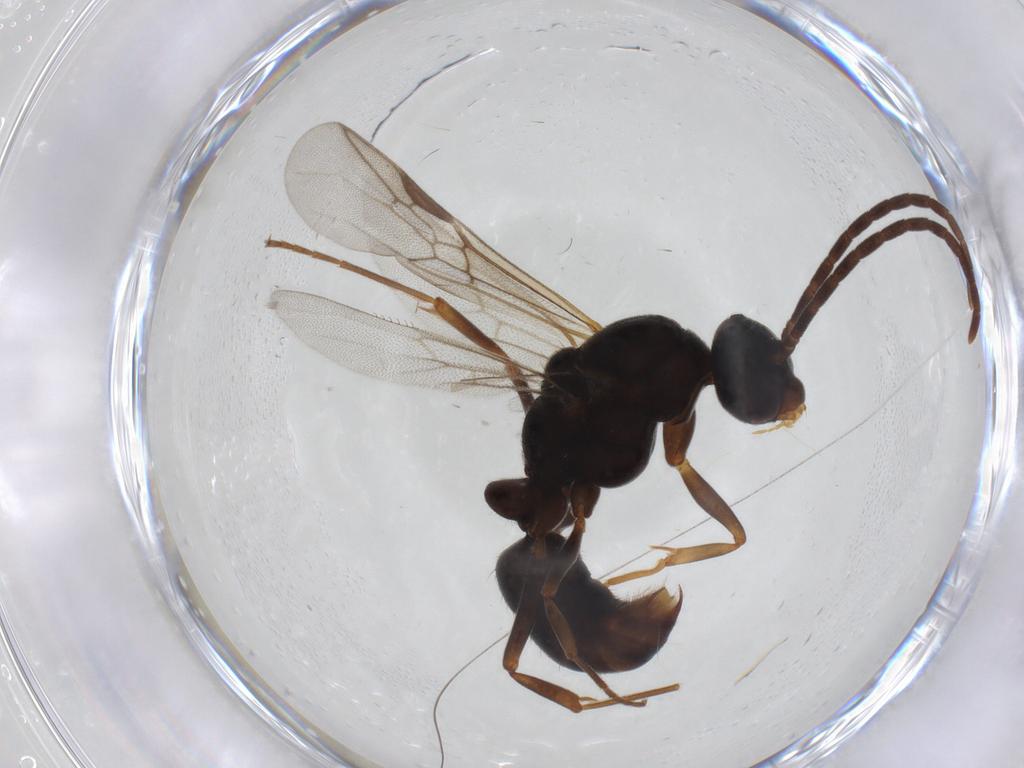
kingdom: Animalia
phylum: Arthropoda
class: Insecta
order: Hymenoptera
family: Formicidae
